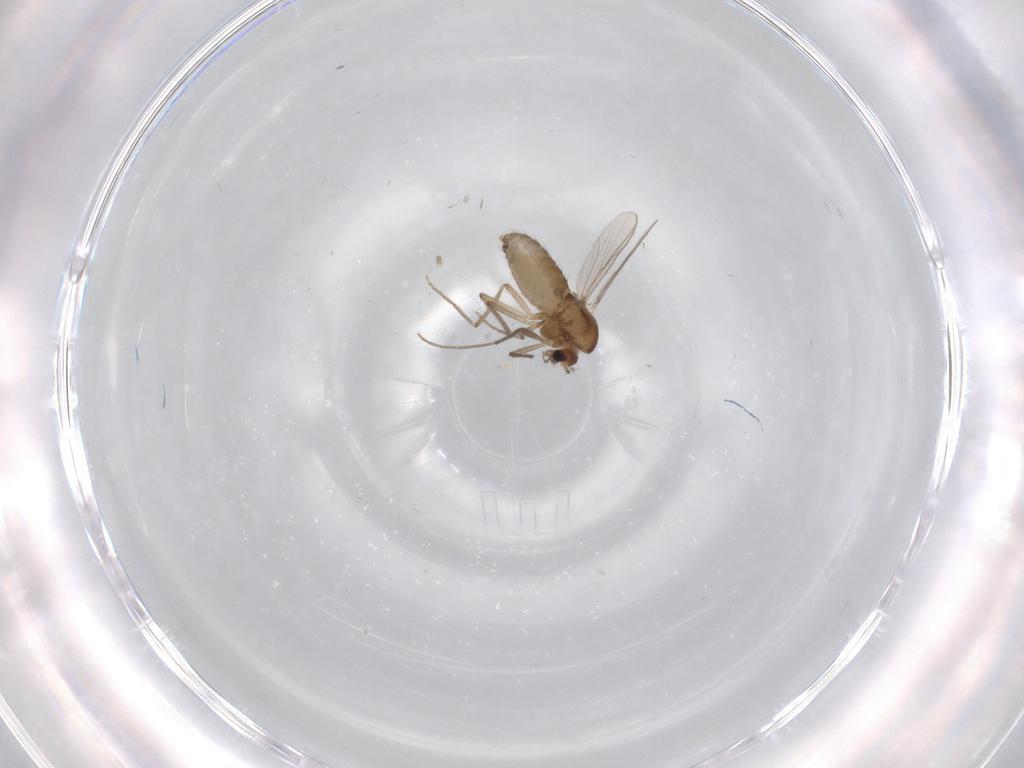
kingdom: Animalia
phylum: Arthropoda
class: Insecta
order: Diptera
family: Chironomidae
